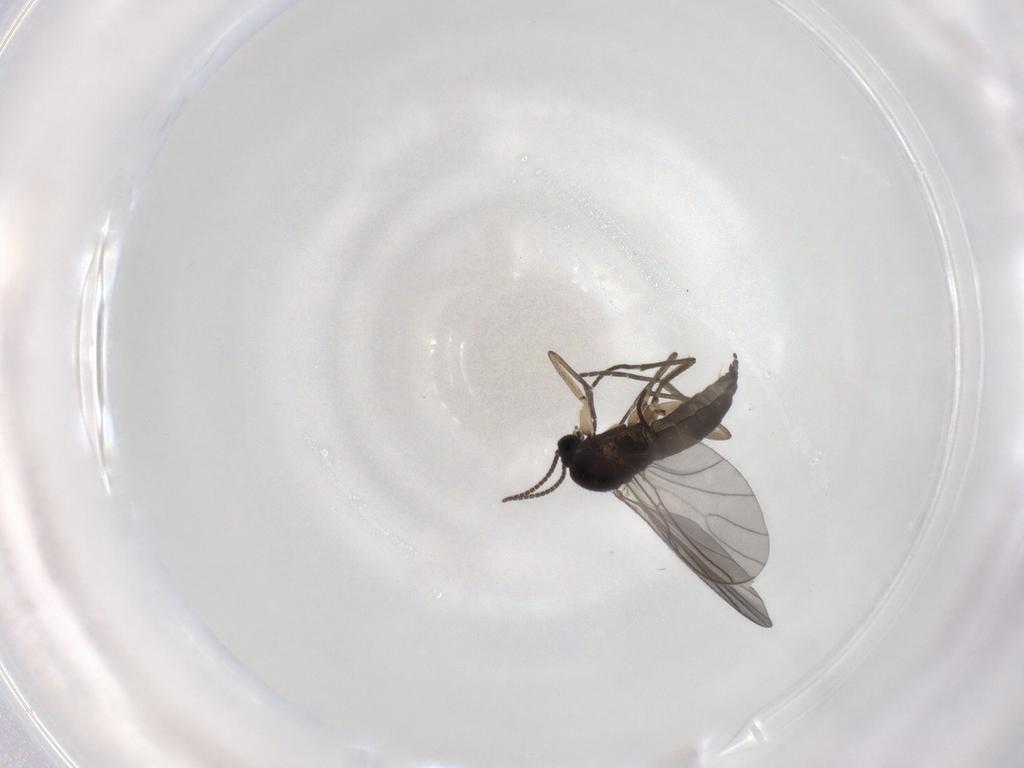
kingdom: Animalia
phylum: Arthropoda
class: Insecta
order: Diptera
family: Sciaridae
